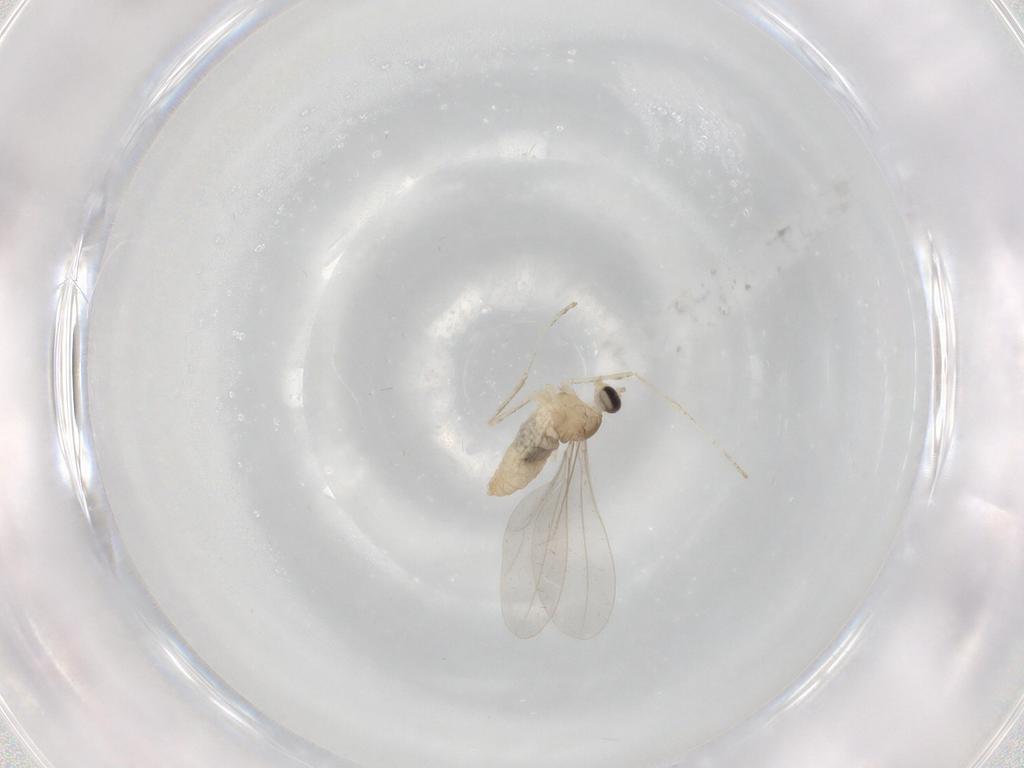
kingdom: Animalia
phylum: Arthropoda
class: Insecta
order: Diptera
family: Cecidomyiidae
